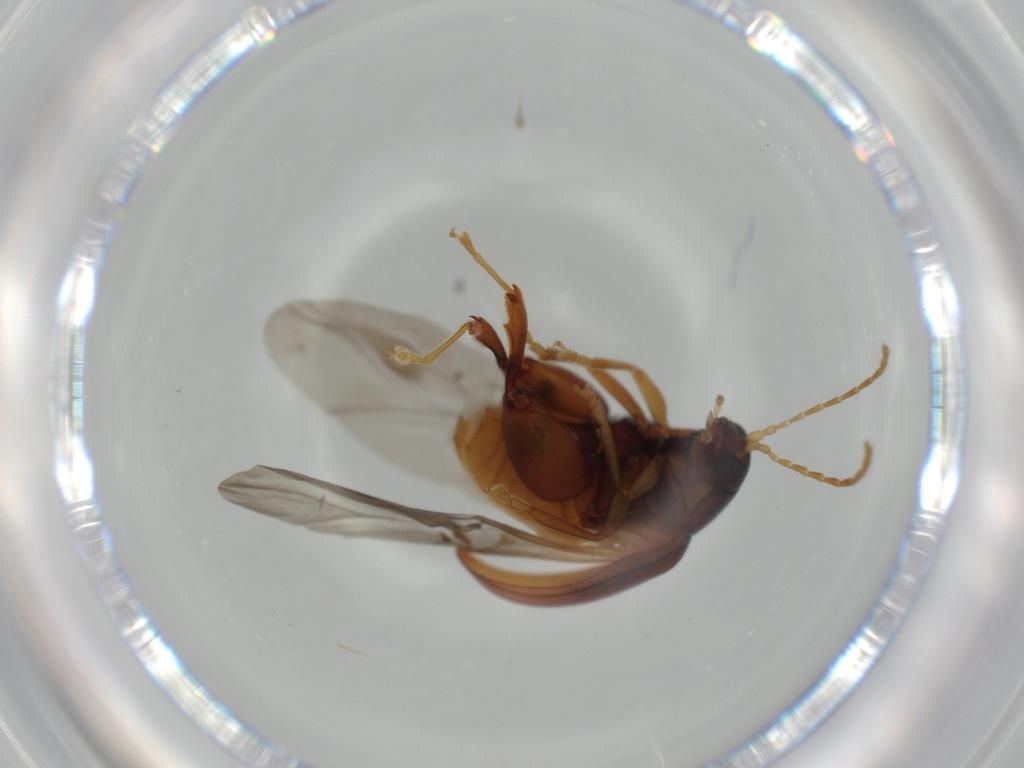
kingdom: Animalia
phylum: Arthropoda
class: Insecta
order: Coleoptera
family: Chrysomelidae
